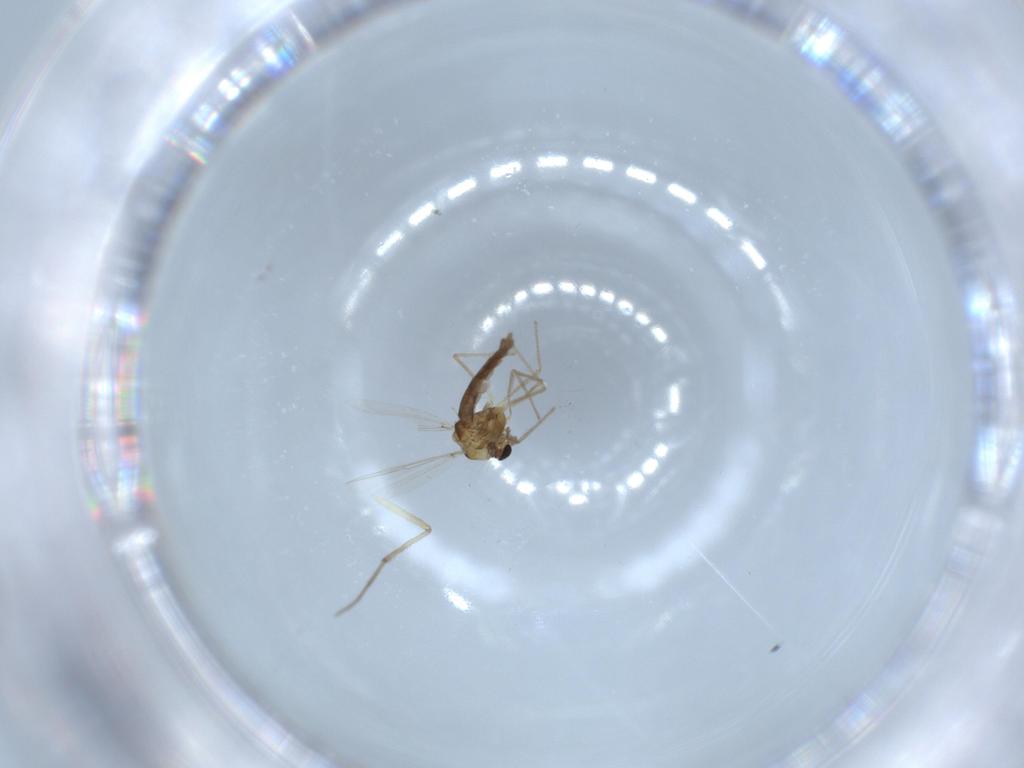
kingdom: Animalia
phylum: Arthropoda
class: Insecta
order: Diptera
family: Chironomidae
